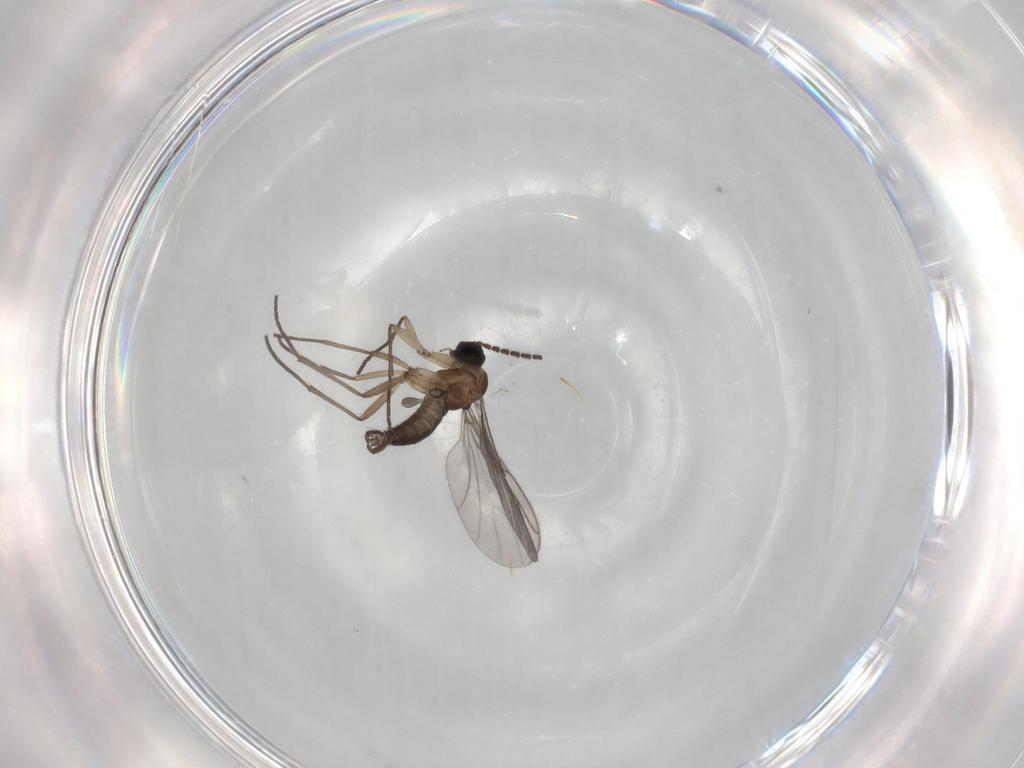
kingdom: Animalia
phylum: Arthropoda
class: Insecta
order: Diptera
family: Sciaridae
